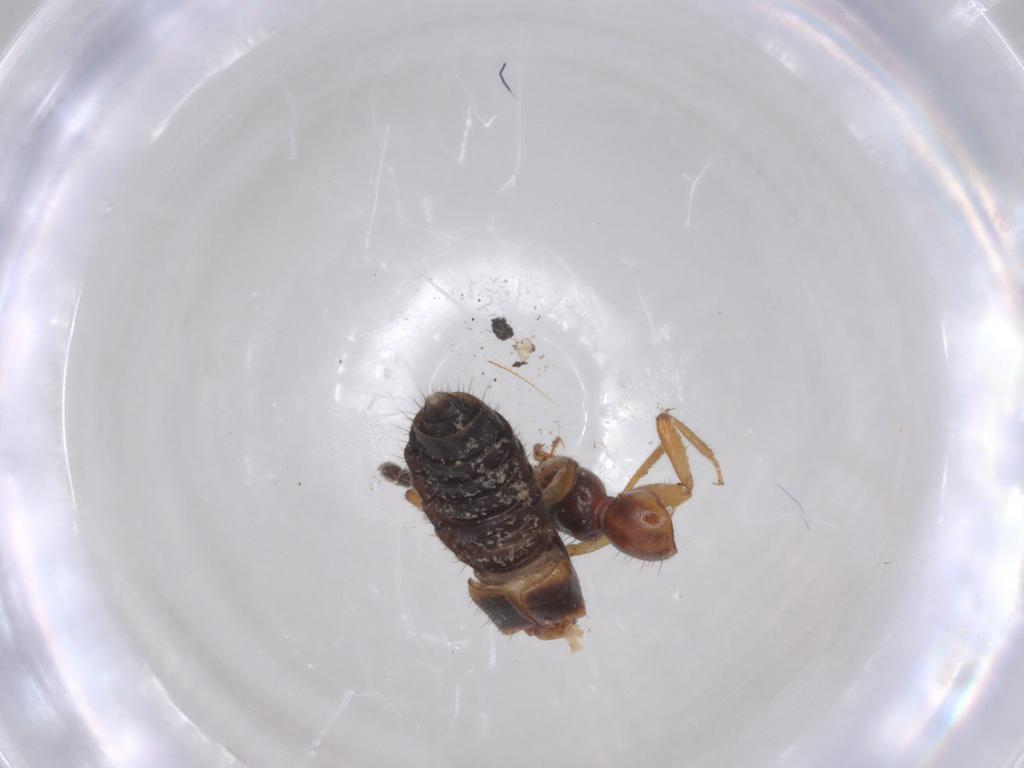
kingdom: Animalia
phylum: Arthropoda
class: Insecta
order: Coleoptera
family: Staphylinidae
